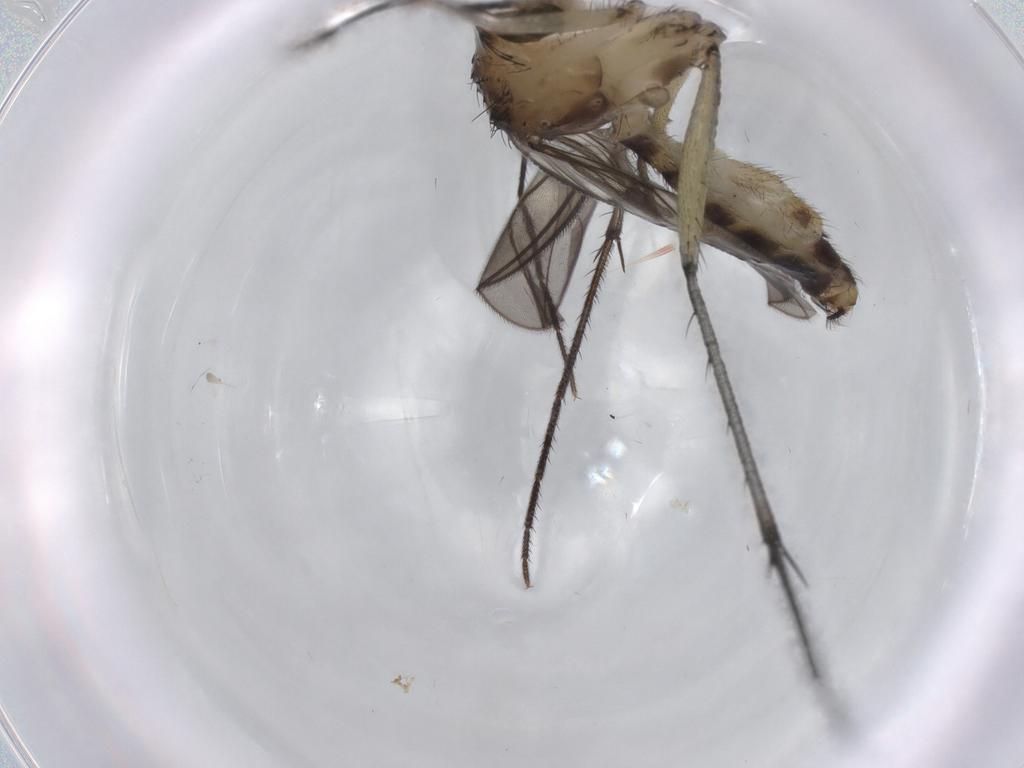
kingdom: Animalia
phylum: Arthropoda
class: Insecta
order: Diptera
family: Mycetophilidae
